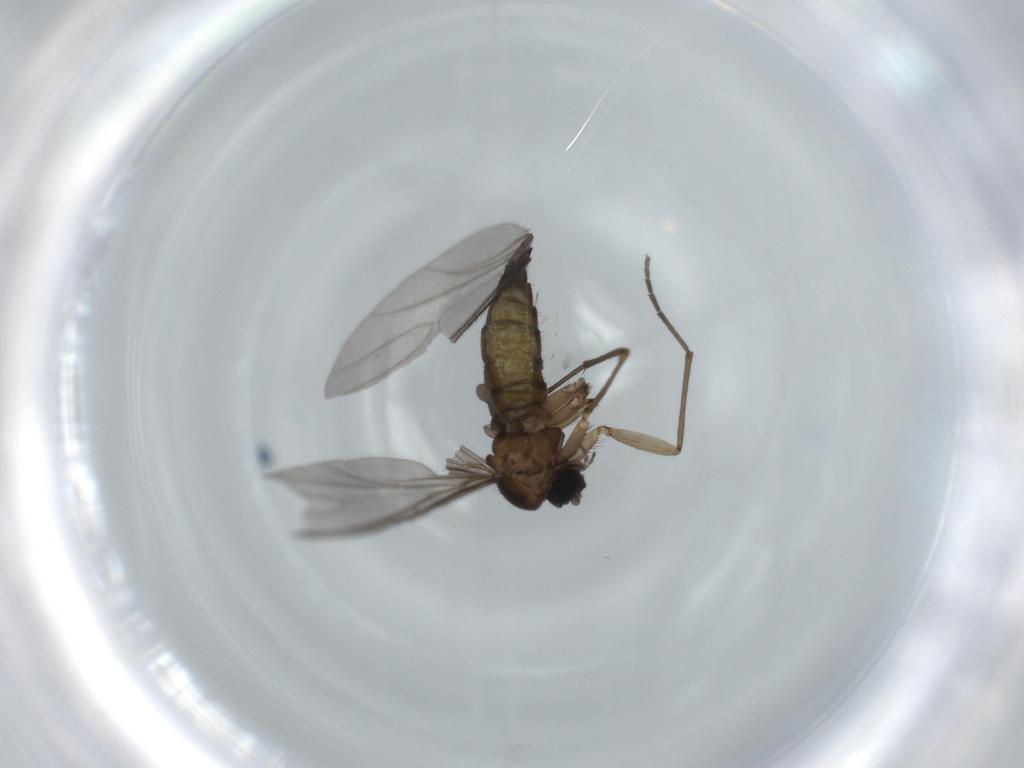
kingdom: Animalia
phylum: Arthropoda
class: Insecta
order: Diptera
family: Sciaridae
